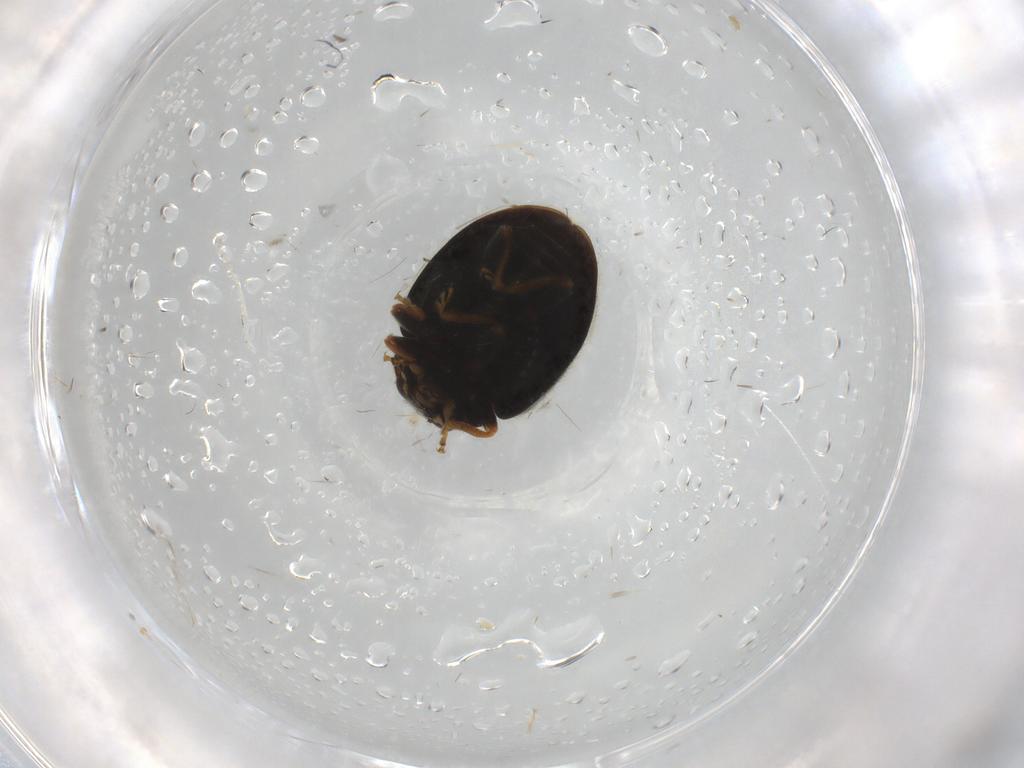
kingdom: Animalia
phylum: Arthropoda
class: Insecta
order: Coleoptera
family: Coccinellidae
